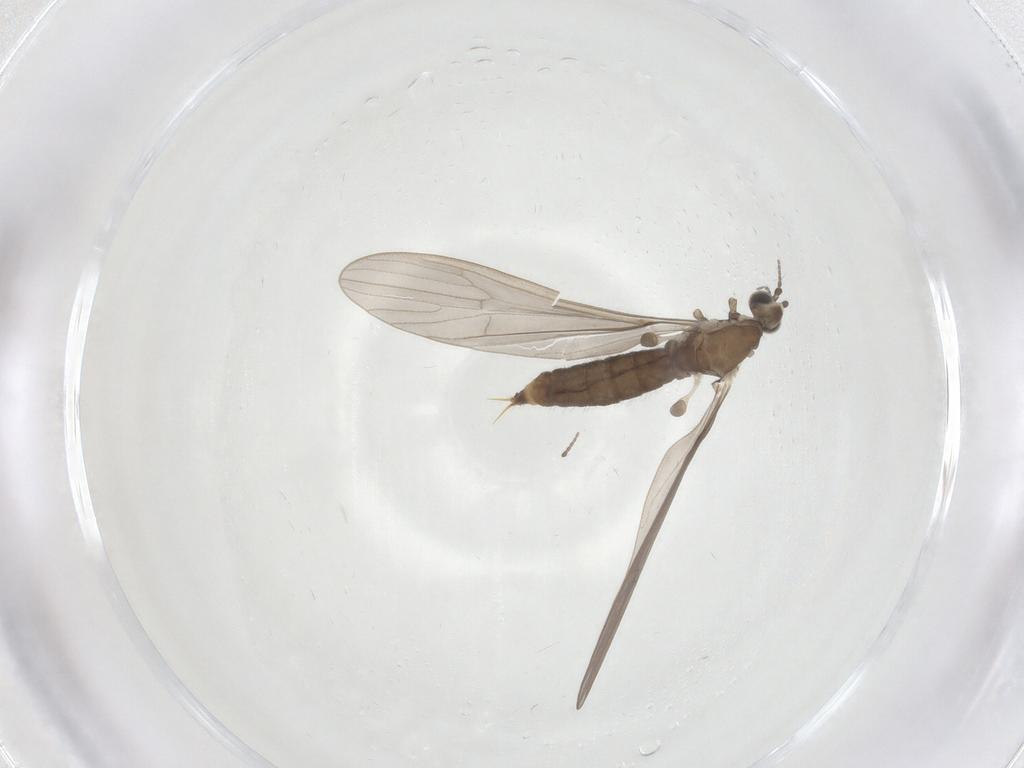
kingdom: Animalia
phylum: Arthropoda
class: Insecta
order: Diptera
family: Limoniidae
